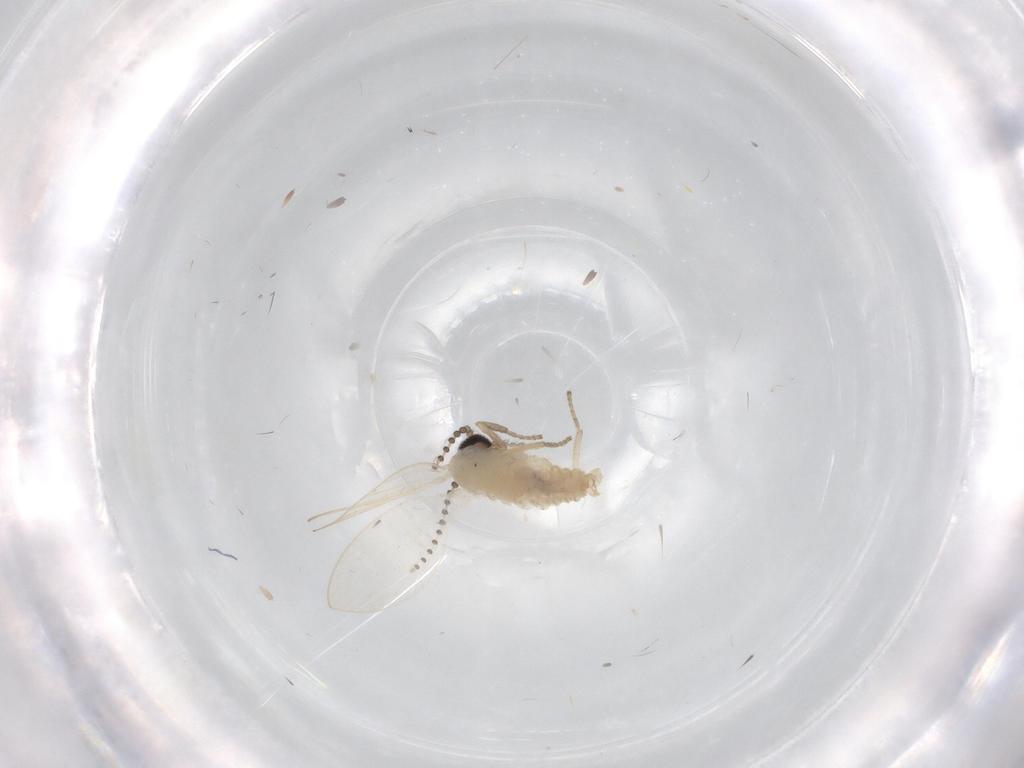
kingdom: Animalia
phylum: Arthropoda
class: Insecta
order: Diptera
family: Psychodidae
